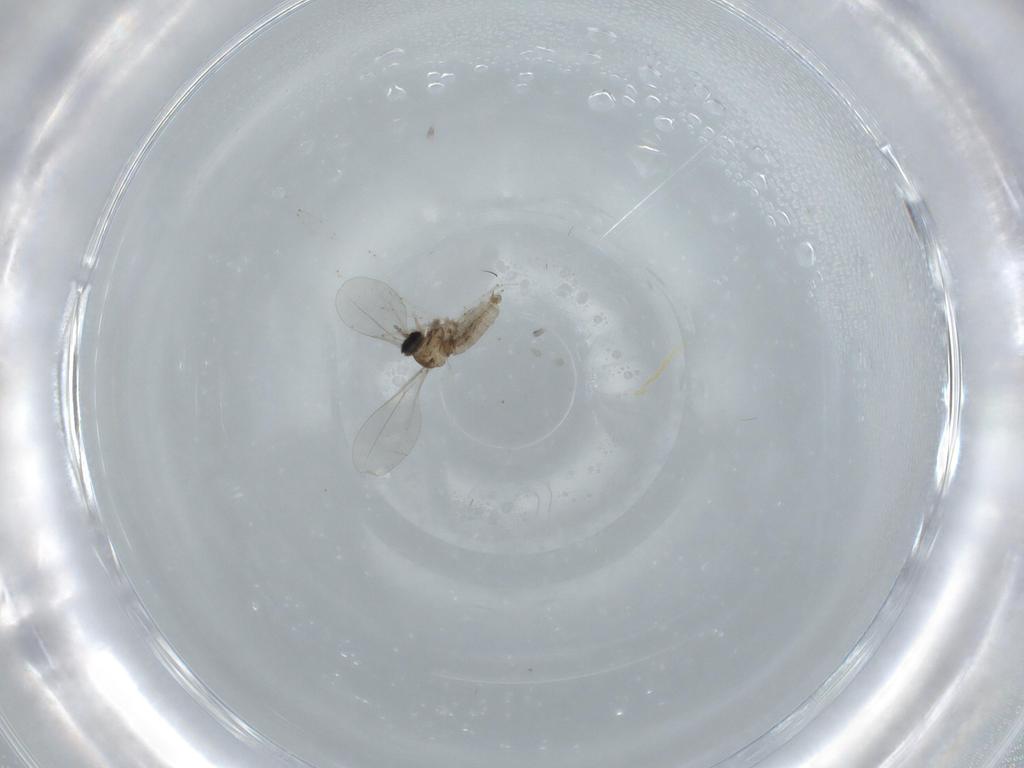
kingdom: Animalia
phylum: Arthropoda
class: Insecta
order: Diptera
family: Cecidomyiidae
